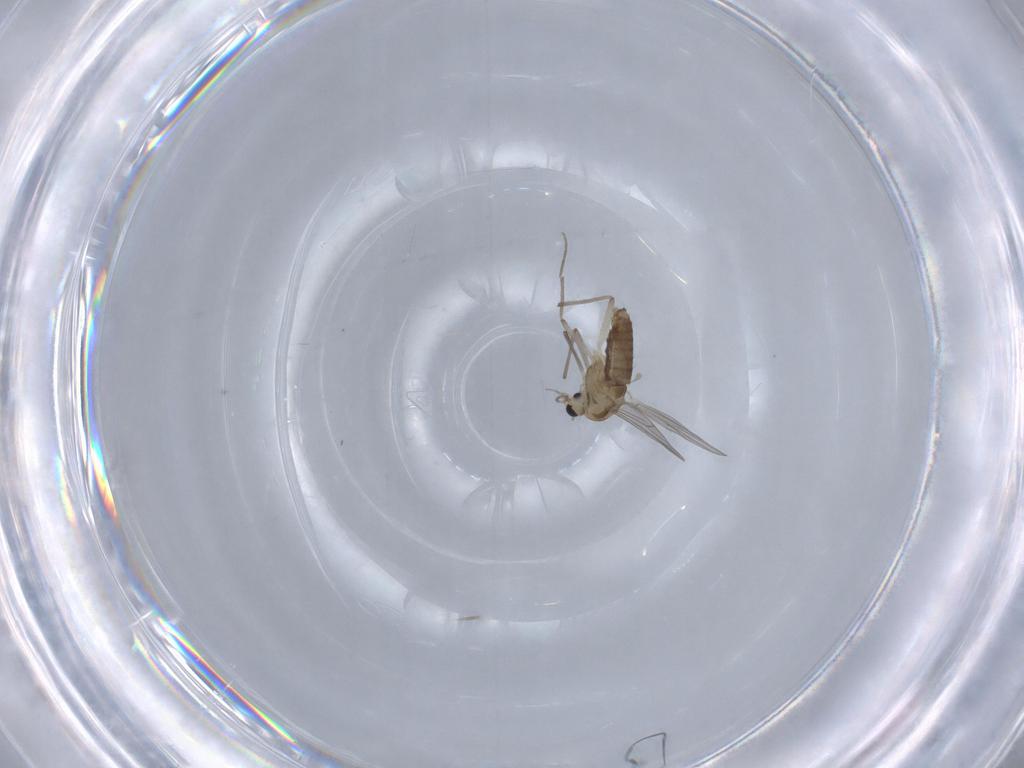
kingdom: Animalia
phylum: Arthropoda
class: Insecta
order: Diptera
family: Chironomidae
